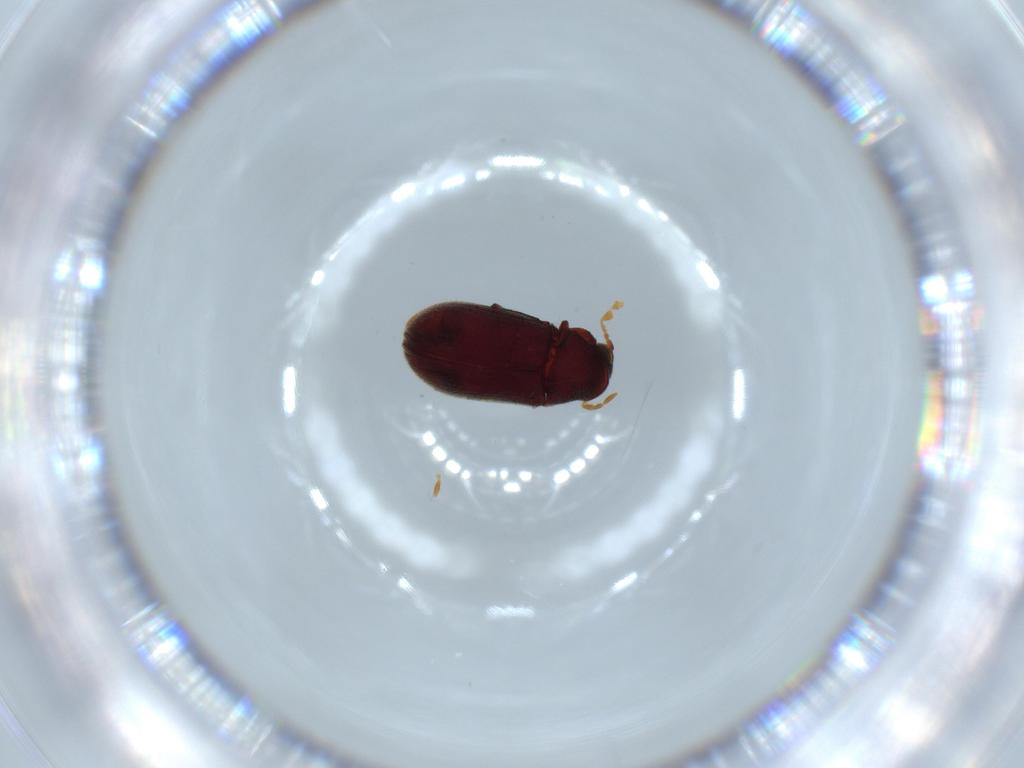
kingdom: Animalia
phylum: Arthropoda
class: Insecta
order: Coleoptera
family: Anobiidae
